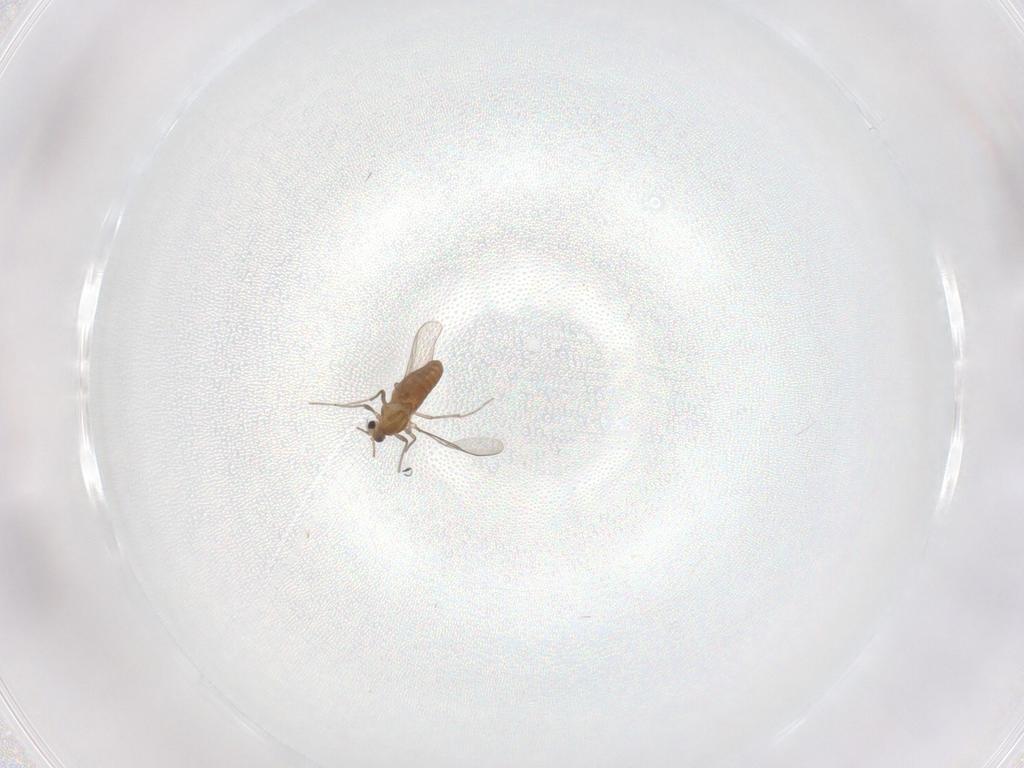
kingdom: Animalia
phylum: Arthropoda
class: Insecta
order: Diptera
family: Chironomidae
